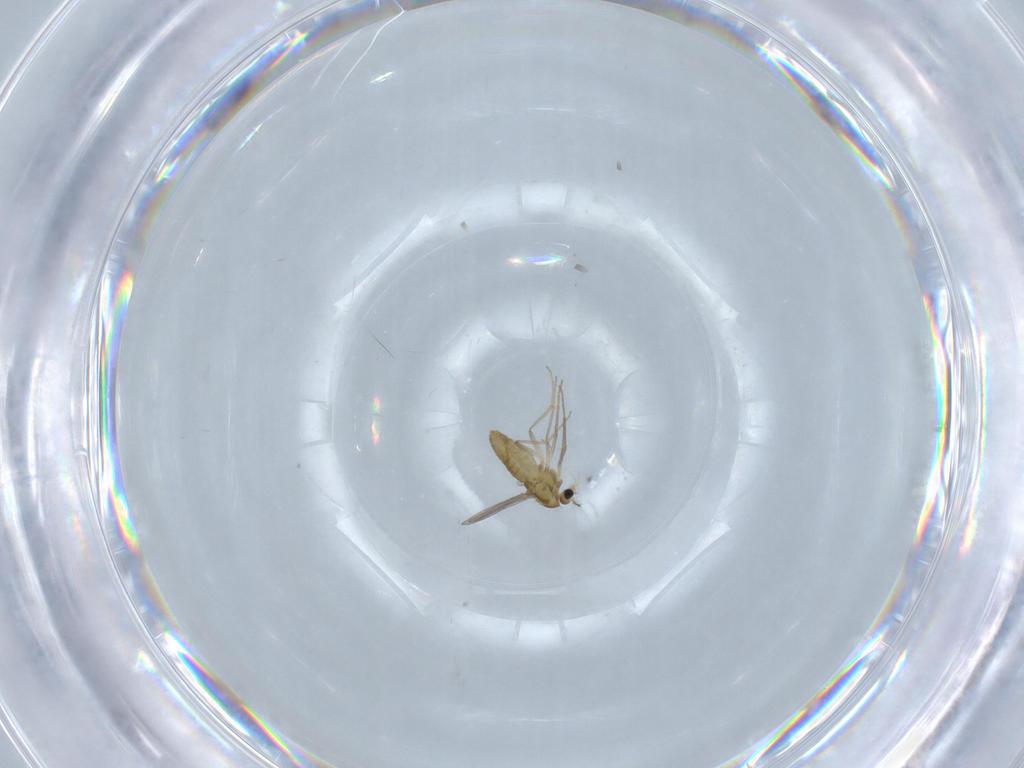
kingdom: Animalia
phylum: Arthropoda
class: Insecta
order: Diptera
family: Chironomidae
